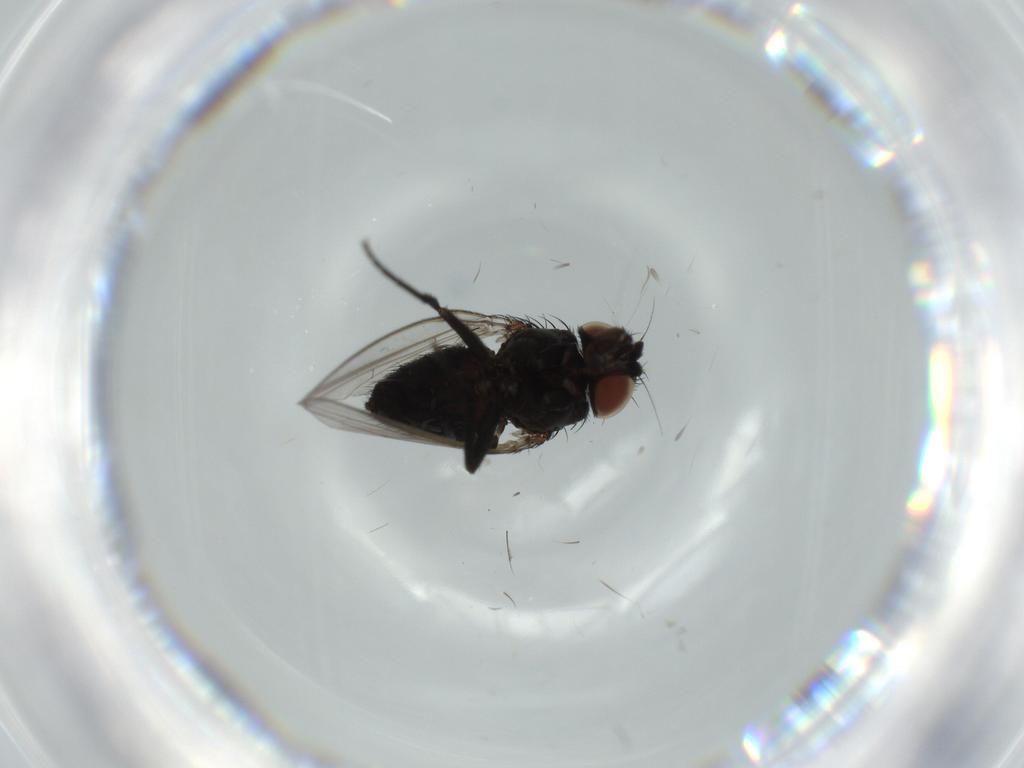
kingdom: Animalia
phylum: Arthropoda
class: Insecta
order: Diptera
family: Milichiidae
